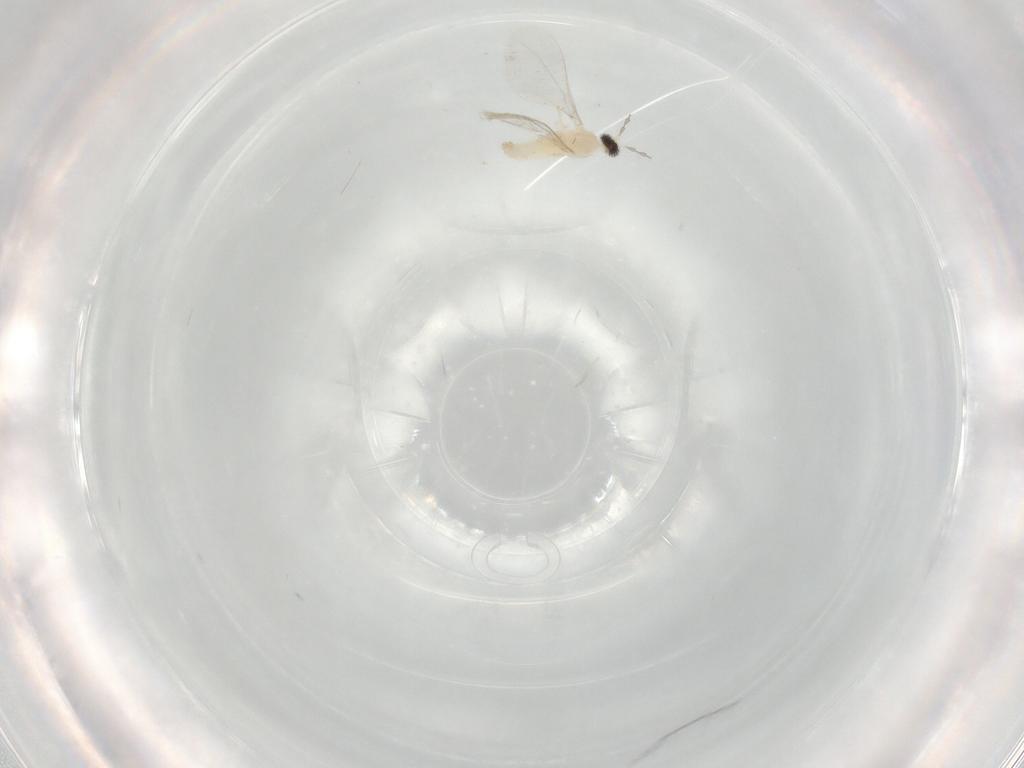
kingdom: Animalia
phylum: Arthropoda
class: Insecta
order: Diptera
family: Cecidomyiidae
